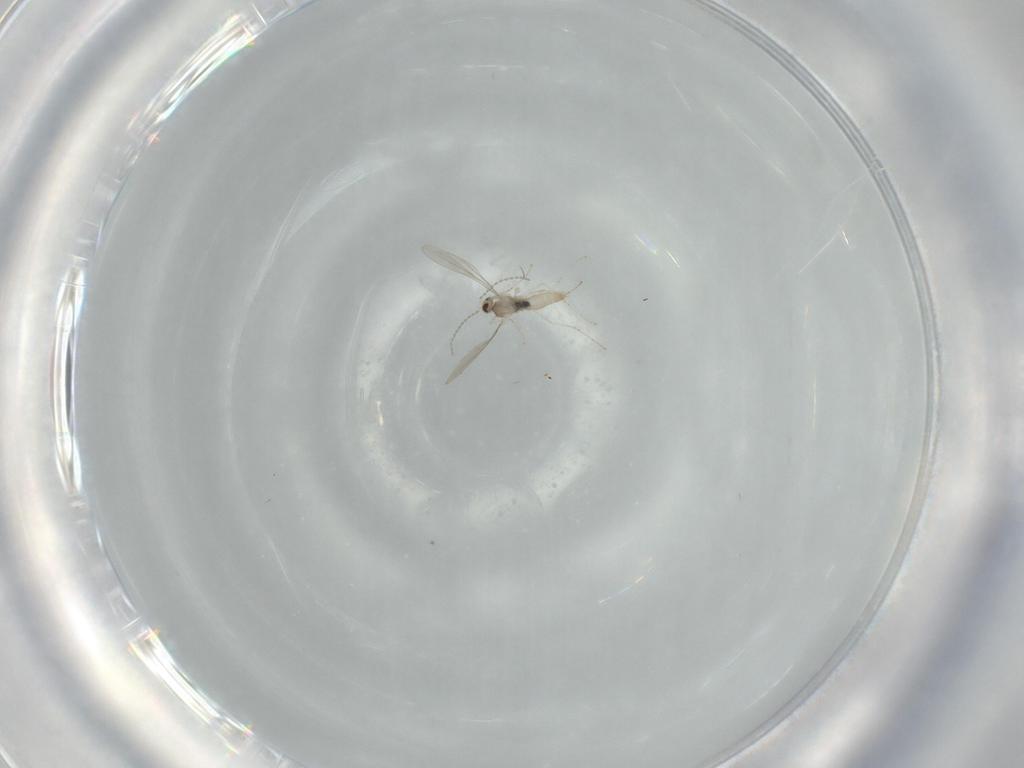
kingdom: Animalia
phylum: Arthropoda
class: Insecta
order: Diptera
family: Cecidomyiidae
